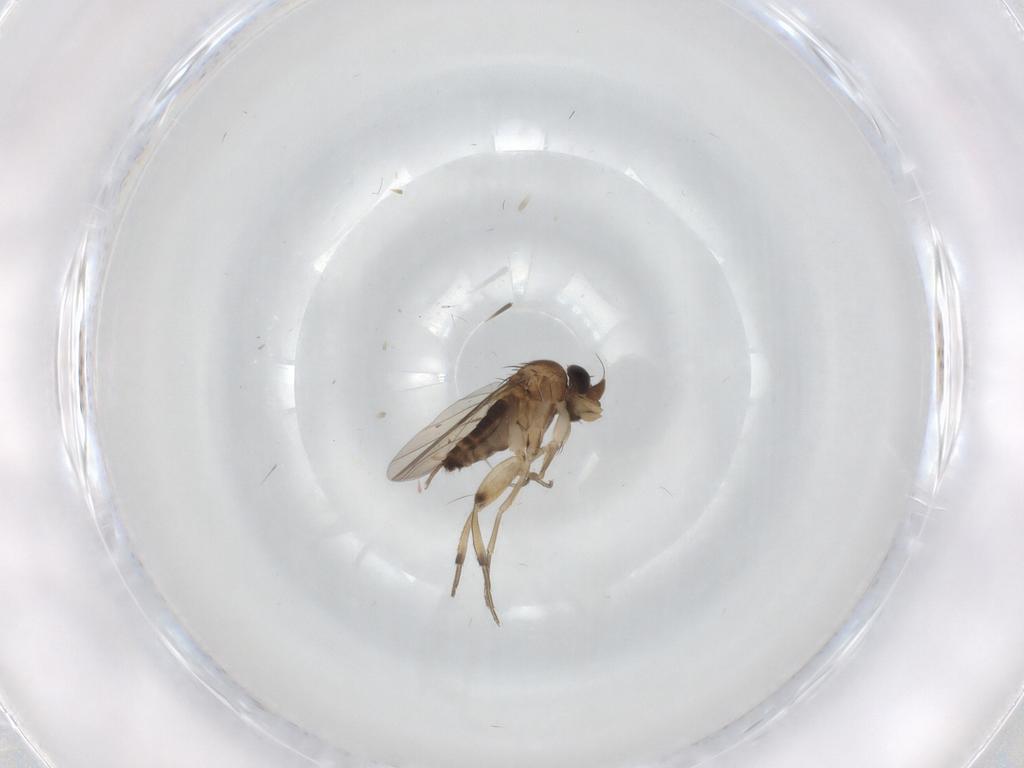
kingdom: Animalia
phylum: Arthropoda
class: Insecta
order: Diptera
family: Phoridae
